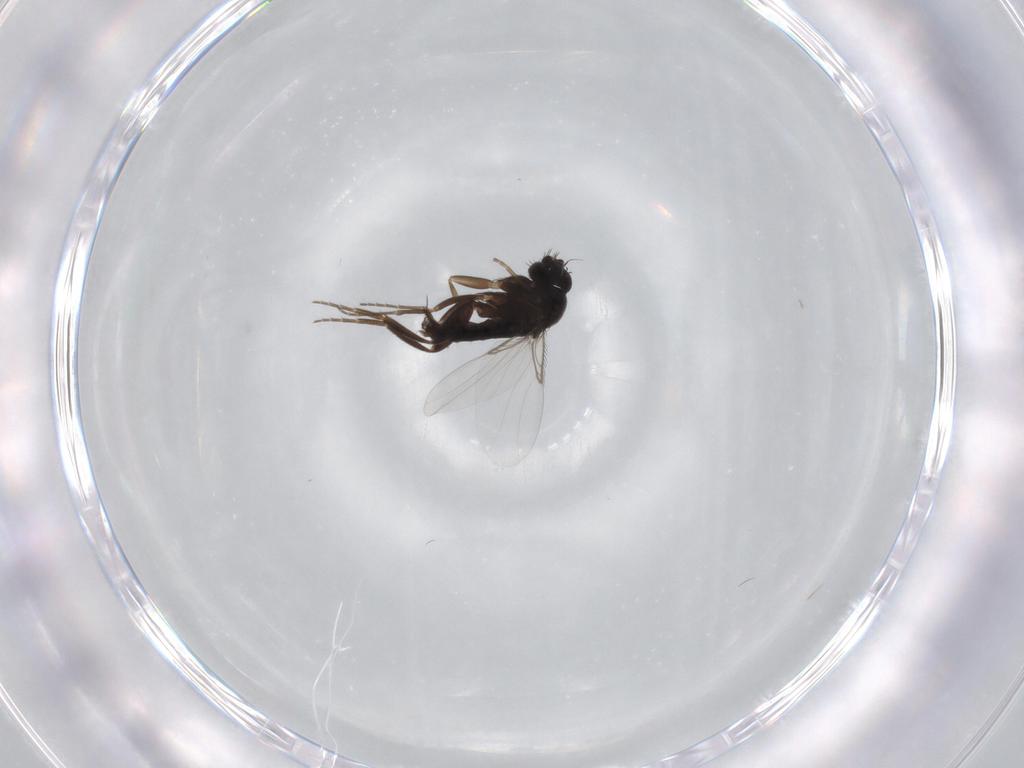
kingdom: Animalia
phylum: Arthropoda
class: Insecta
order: Diptera
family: Phoridae
